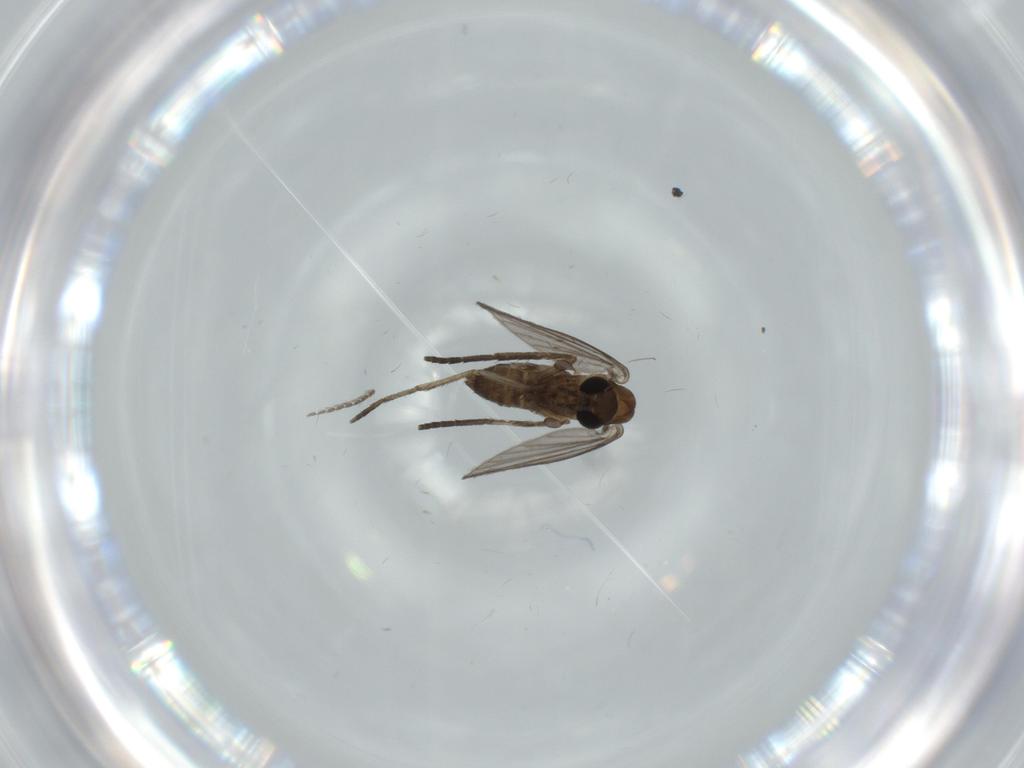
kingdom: Animalia
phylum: Arthropoda
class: Insecta
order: Diptera
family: Psychodidae
